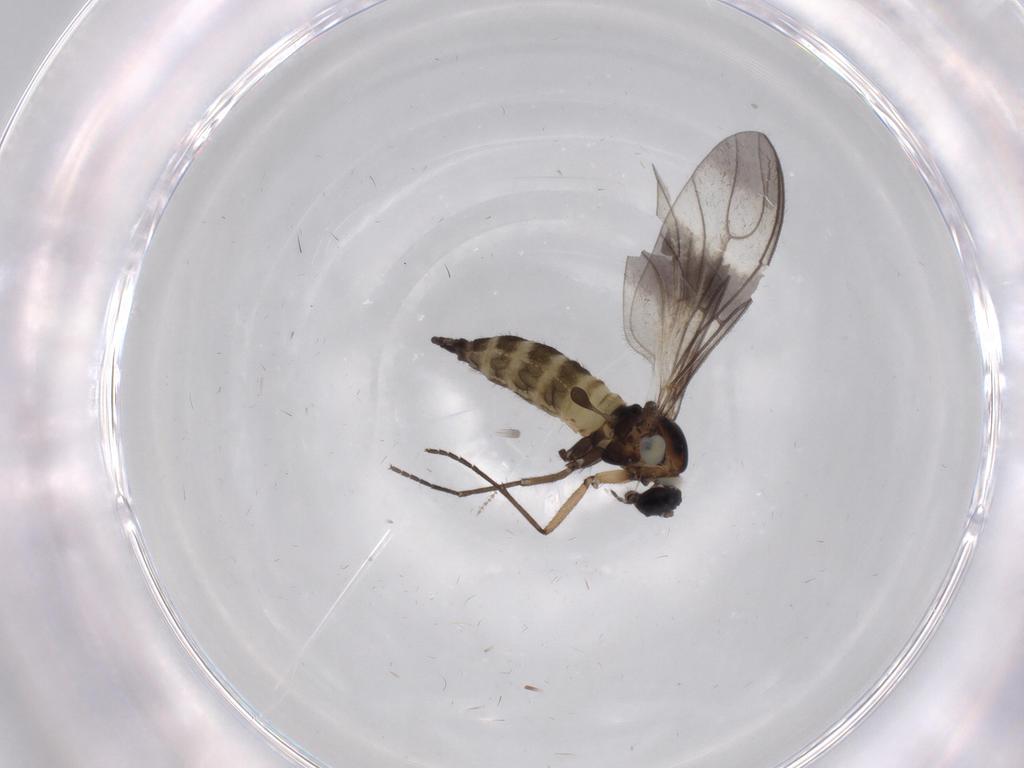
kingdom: Animalia
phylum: Arthropoda
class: Insecta
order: Diptera
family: Sciaridae
